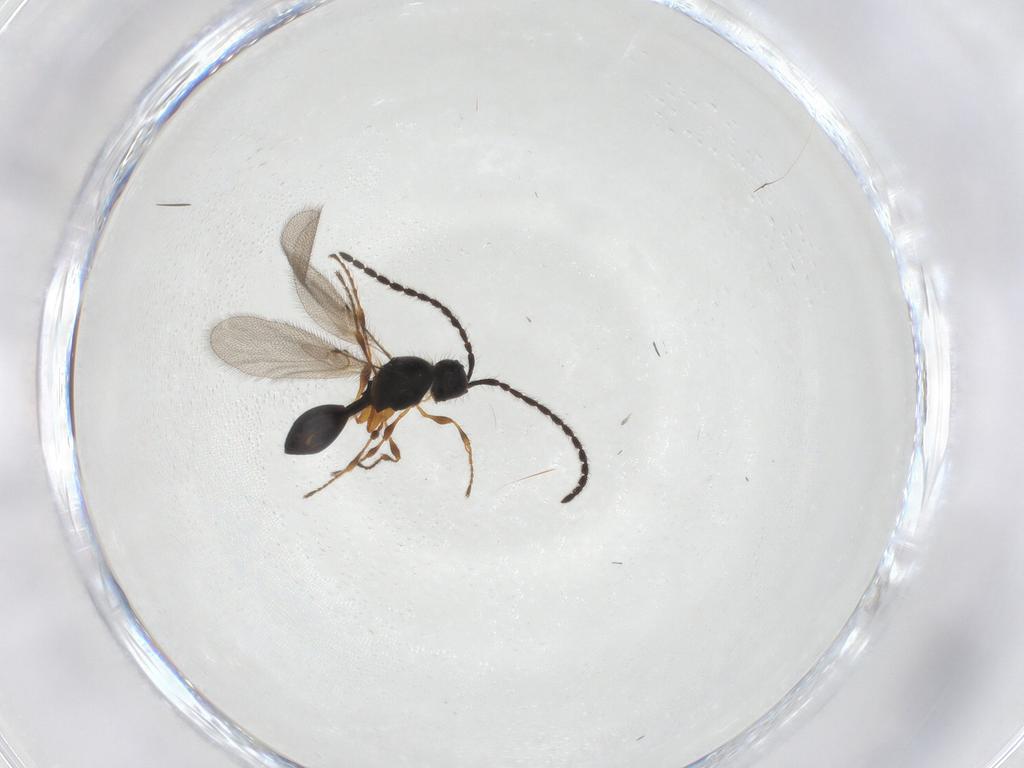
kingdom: Animalia
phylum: Arthropoda
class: Insecta
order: Hymenoptera
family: Diapriidae
